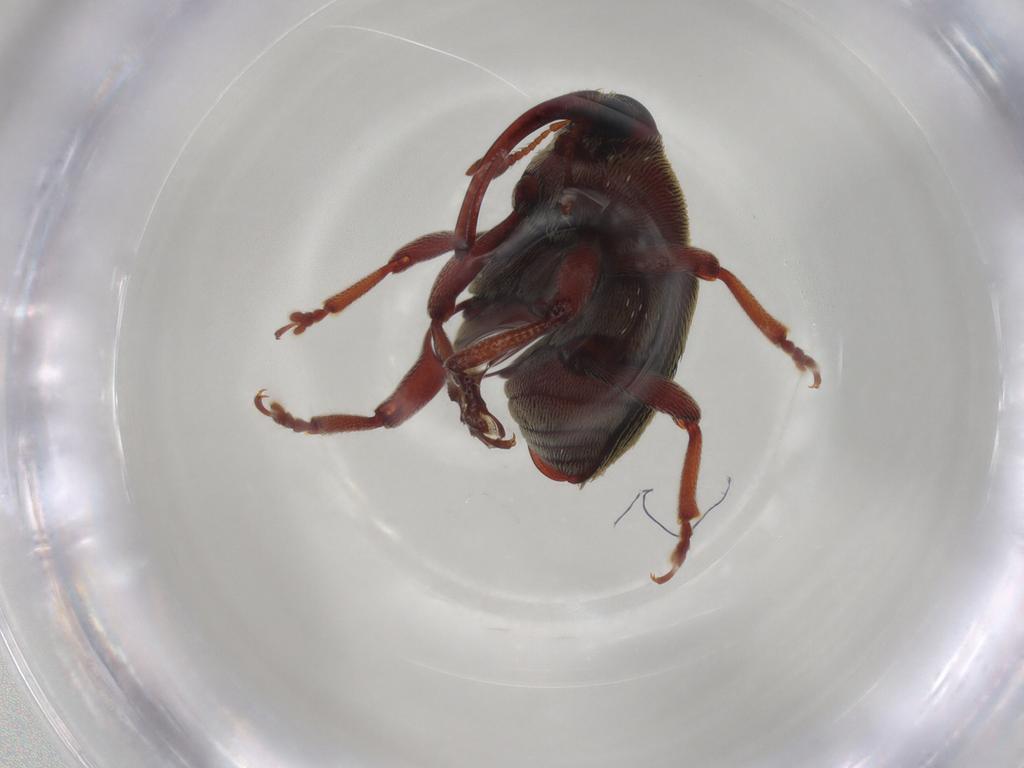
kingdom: Animalia
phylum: Arthropoda
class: Insecta
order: Coleoptera
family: Curculionidae
